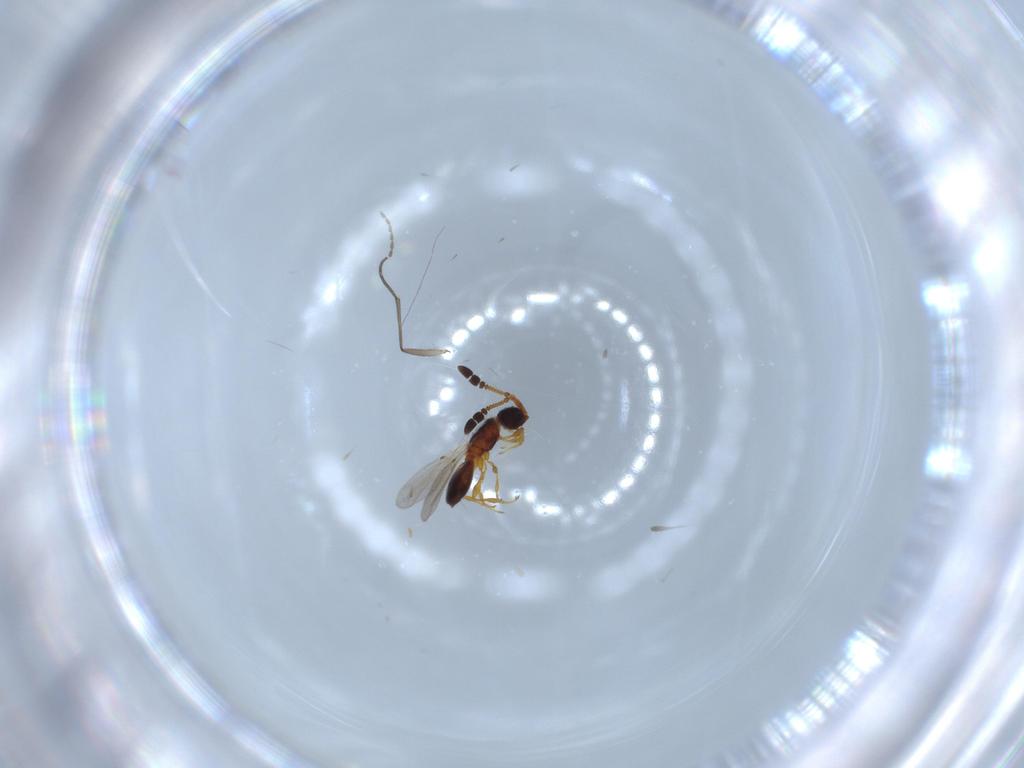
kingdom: Animalia
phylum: Arthropoda
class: Insecta
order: Hymenoptera
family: Diapriidae
